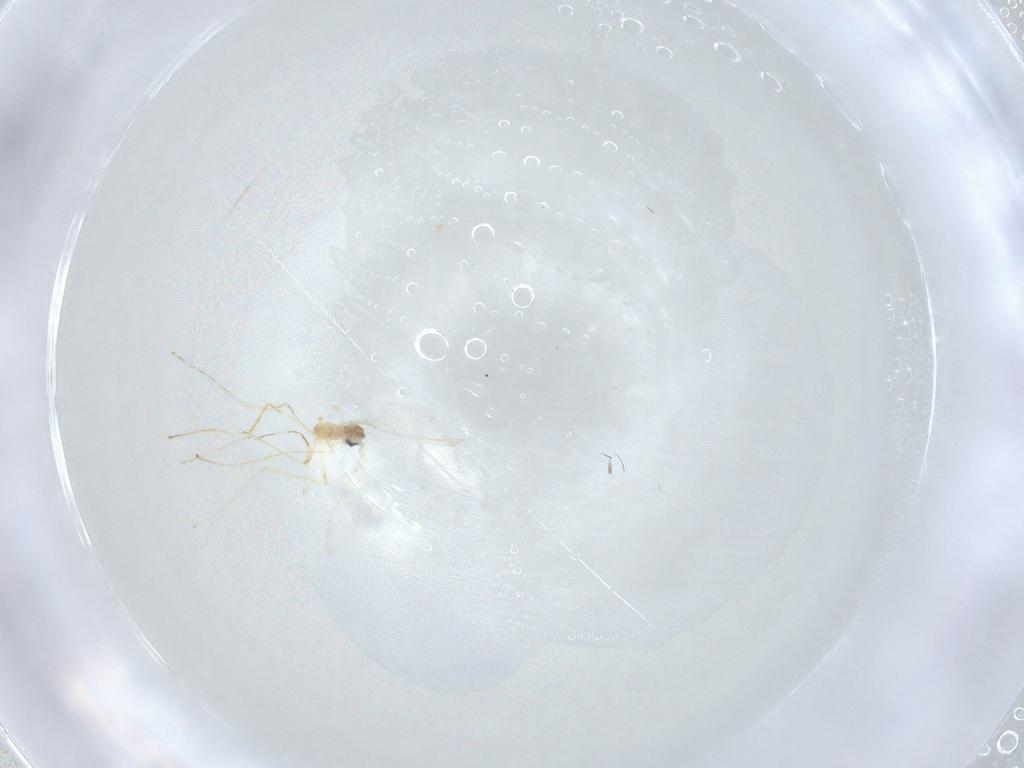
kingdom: Animalia
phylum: Arthropoda
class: Insecta
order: Diptera
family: Cecidomyiidae
